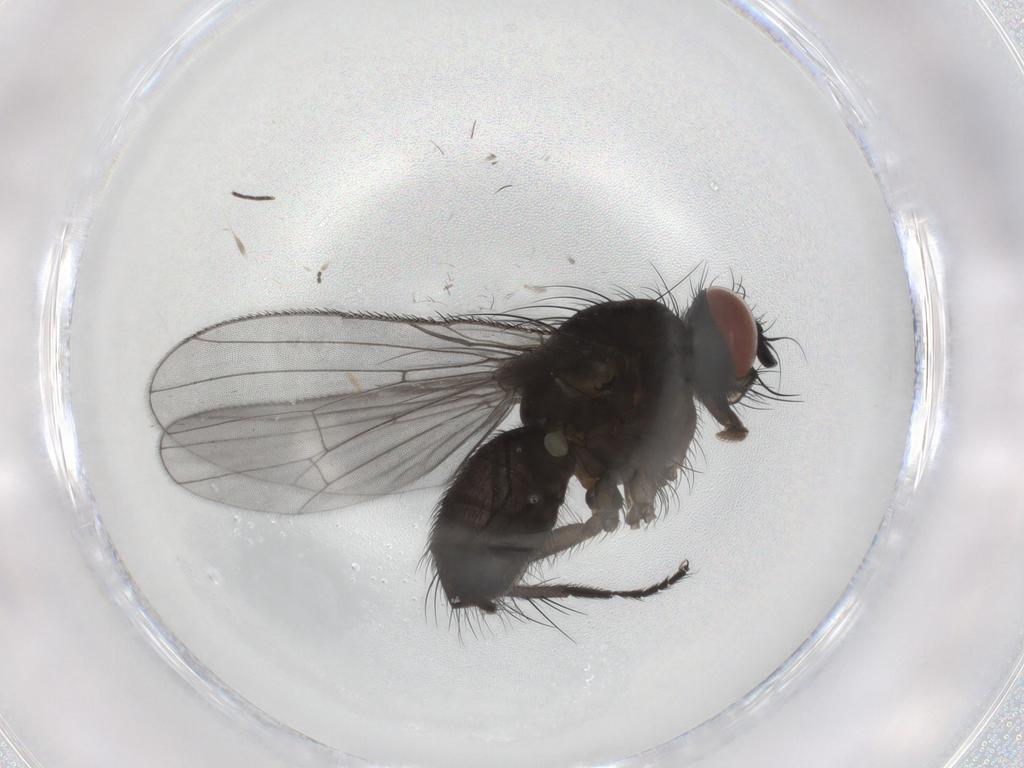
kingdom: Animalia
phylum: Arthropoda
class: Insecta
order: Diptera
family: Muscidae
